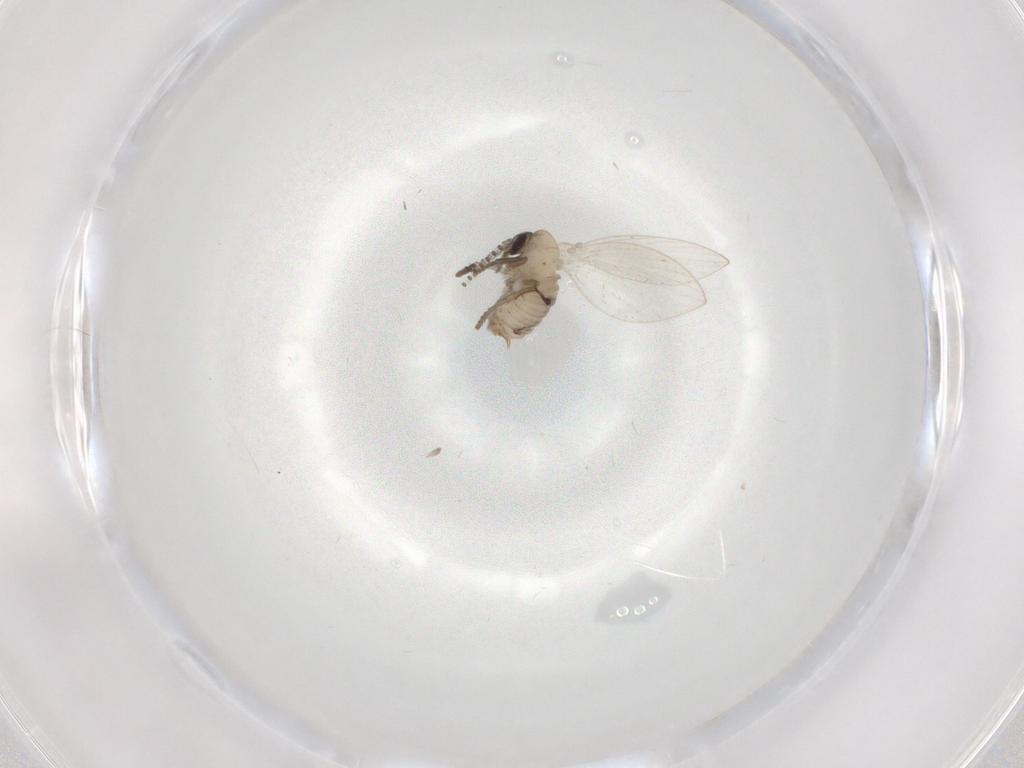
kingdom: Animalia
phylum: Arthropoda
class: Insecta
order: Diptera
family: Psychodidae
